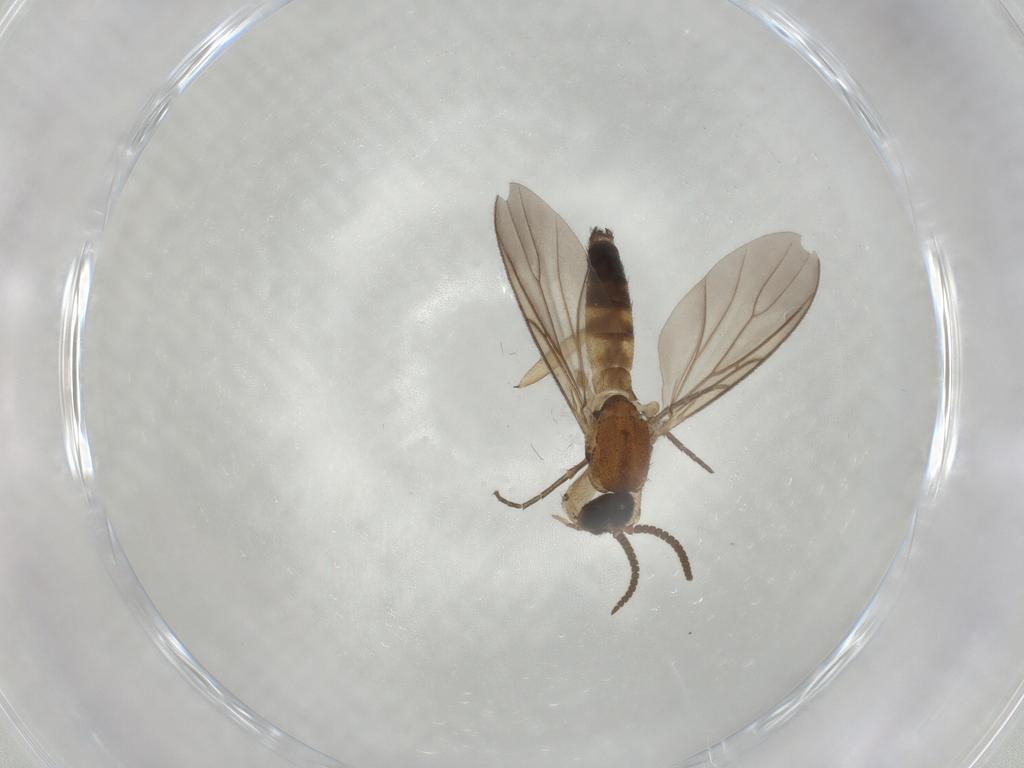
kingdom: Animalia
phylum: Arthropoda
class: Insecta
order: Diptera
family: Mycetophilidae
